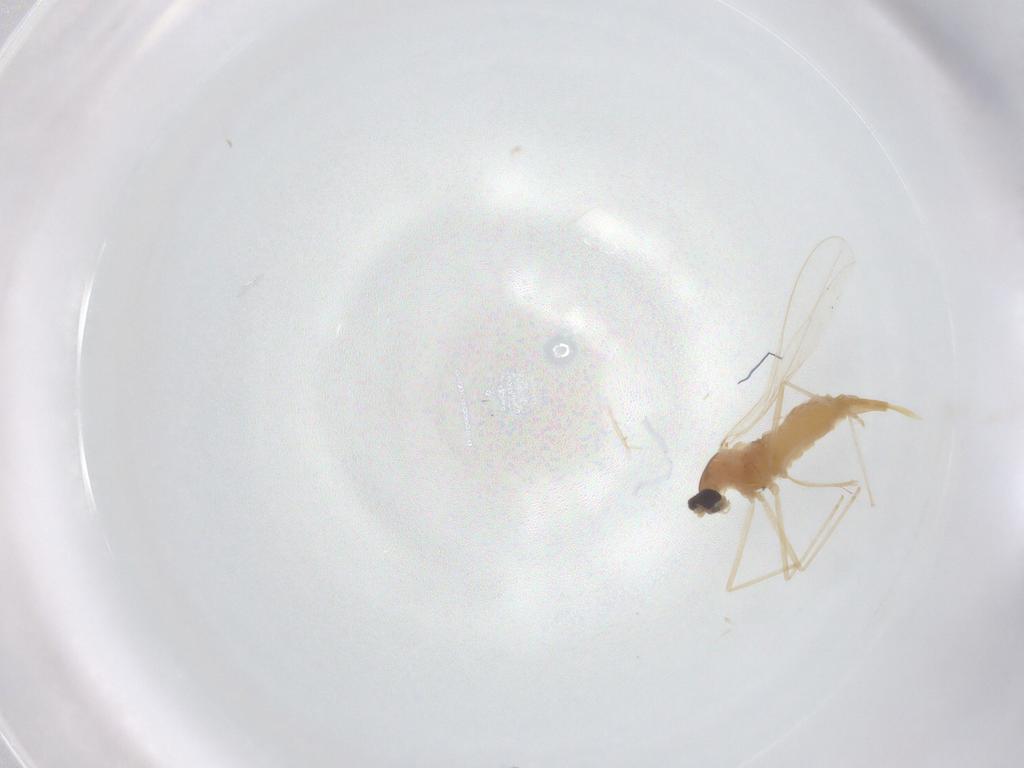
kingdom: Animalia
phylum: Arthropoda
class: Insecta
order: Diptera
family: Cecidomyiidae
